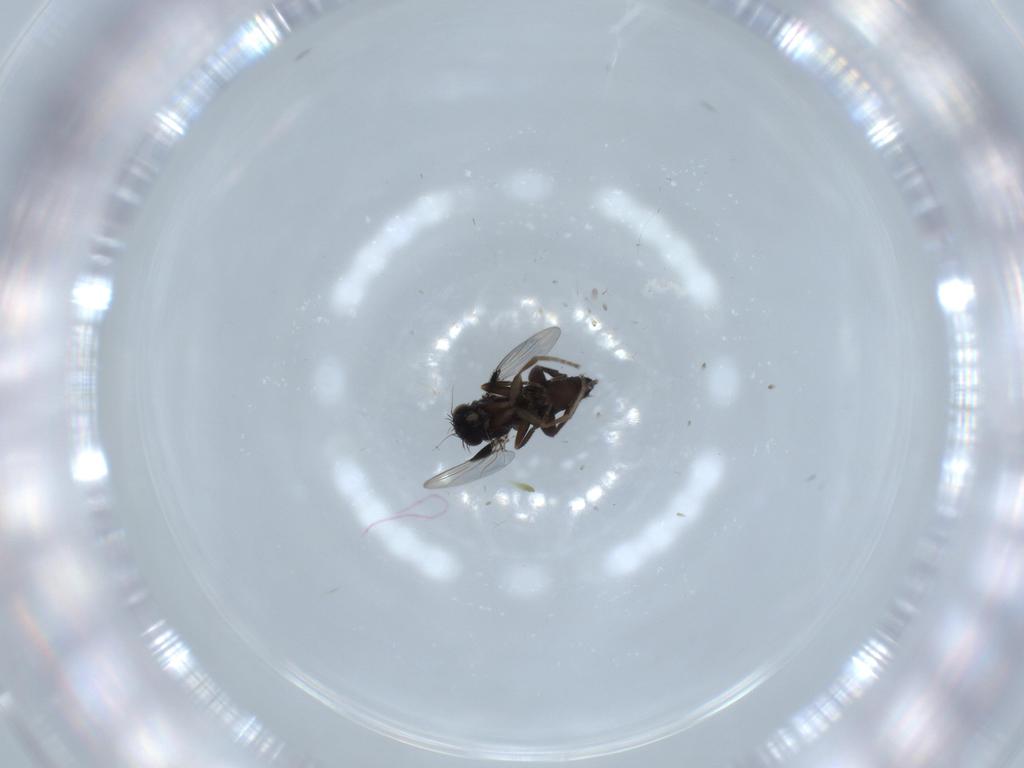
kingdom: Animalia
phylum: Arthropoda
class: Insecta
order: Diptera
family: Phoridae
